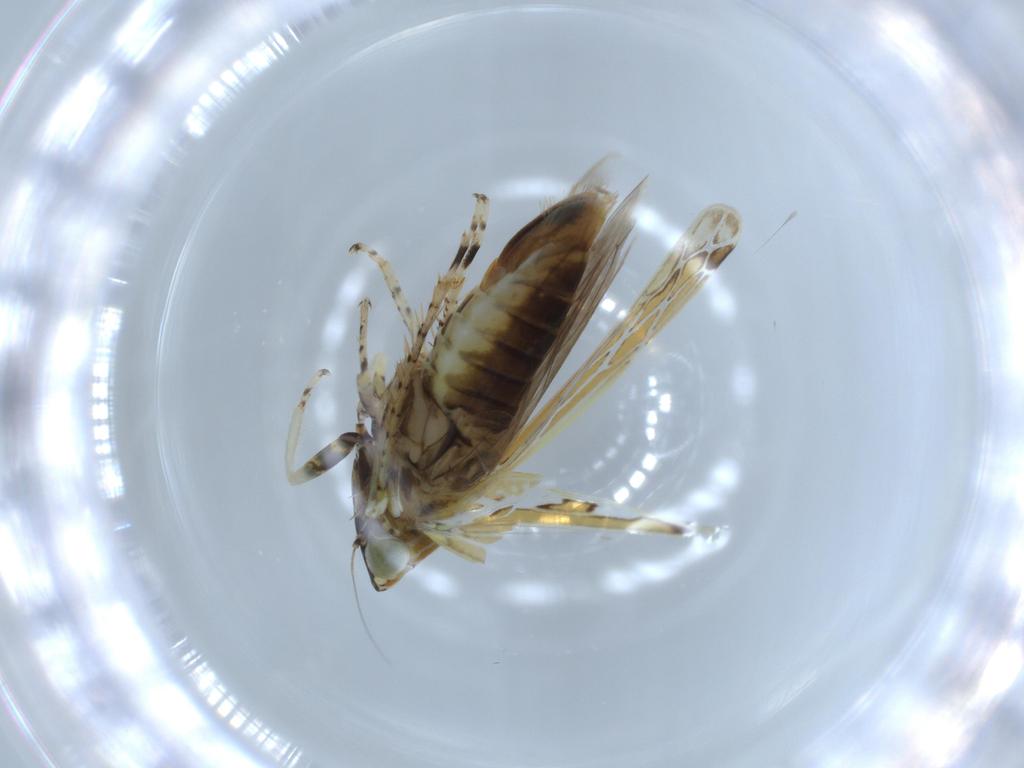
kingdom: Animalia
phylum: Arthropoda
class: Insecta
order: Hemiptera
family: Cicadellidae
